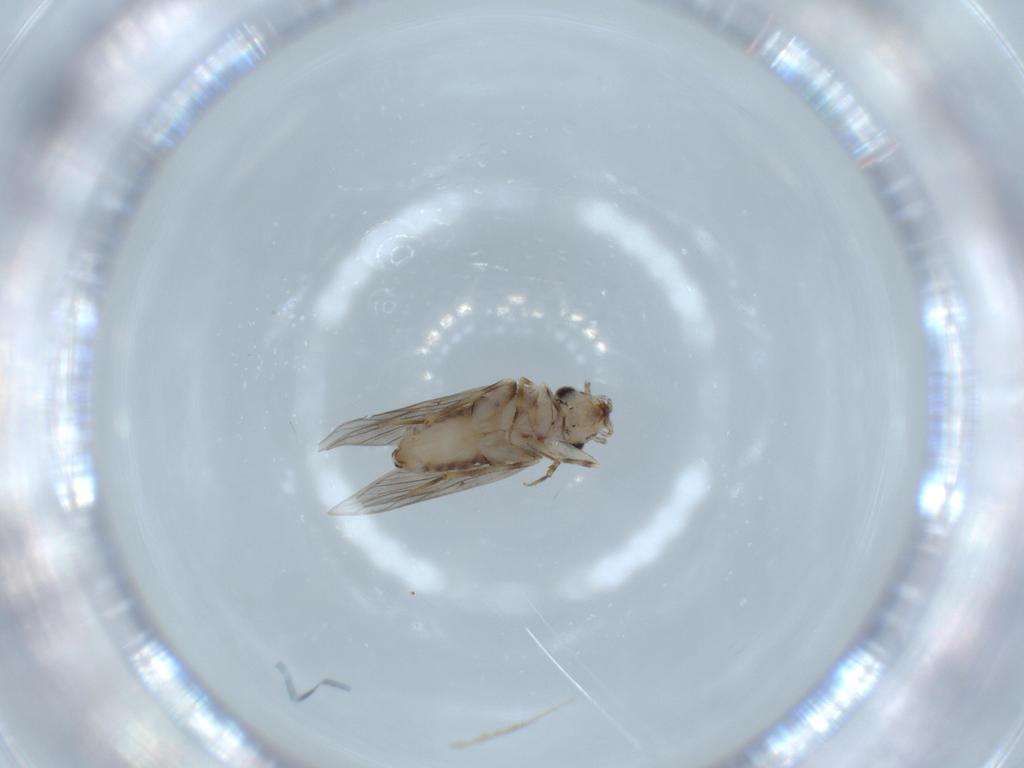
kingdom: Animalia
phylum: Arthropoda
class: Insecta
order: Psocodea
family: Lepidopsocidae
